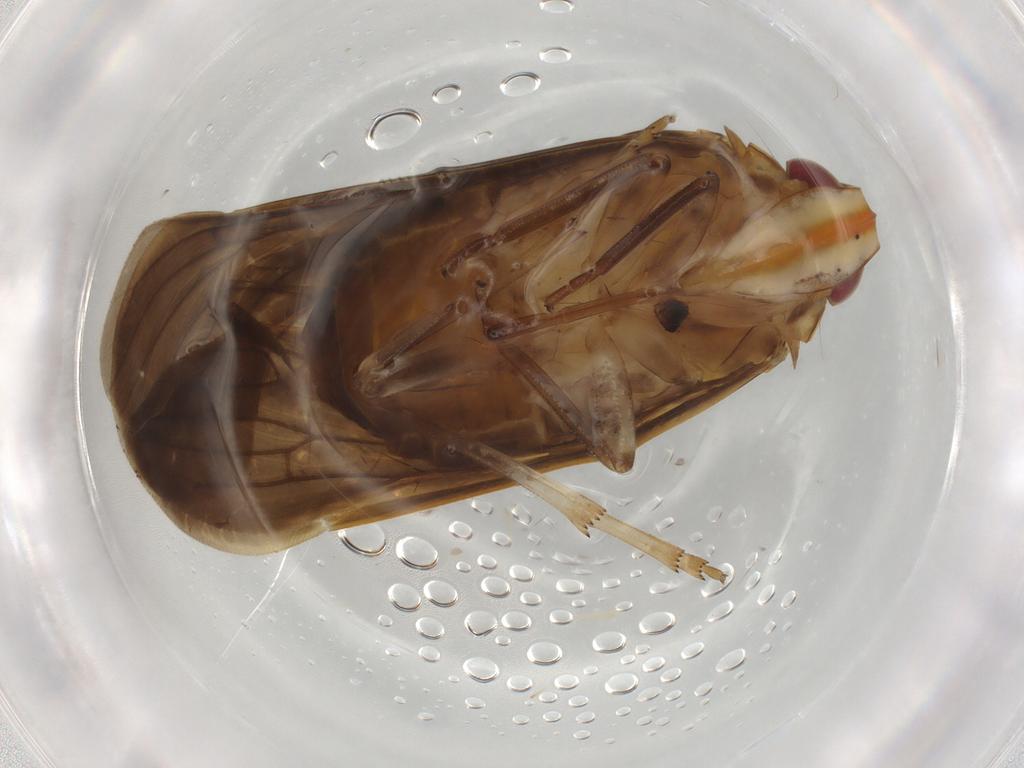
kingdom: Animalia
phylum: Arthropoda
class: Insecta
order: Hemiptera
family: Achilidae
